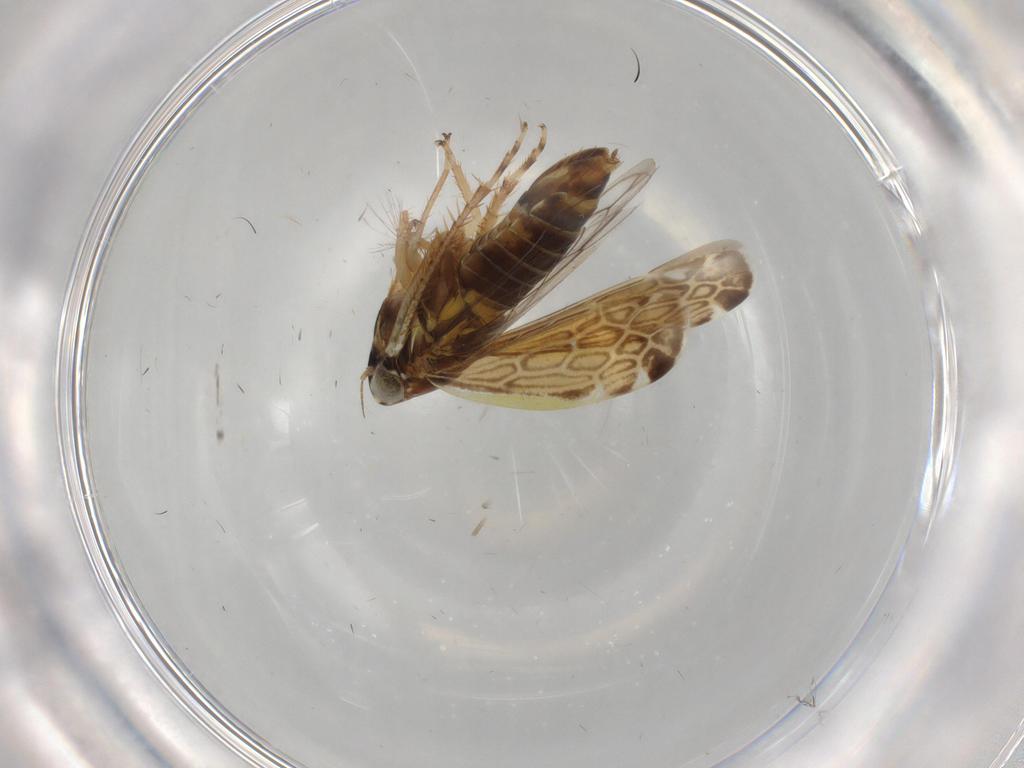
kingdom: Animalia
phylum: Arthropoda
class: Insecta
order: Hemiptera
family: Cicadellidae
